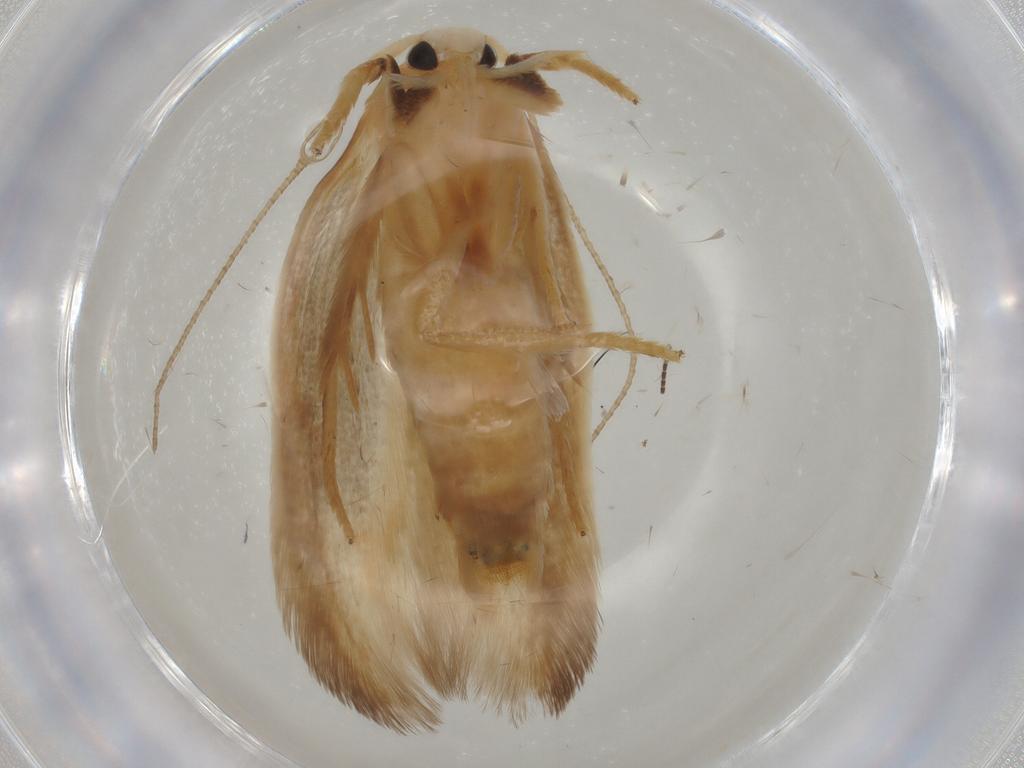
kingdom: Animalia
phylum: Arthropoda
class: Insecta
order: Lepidoptera
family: Geometridae
